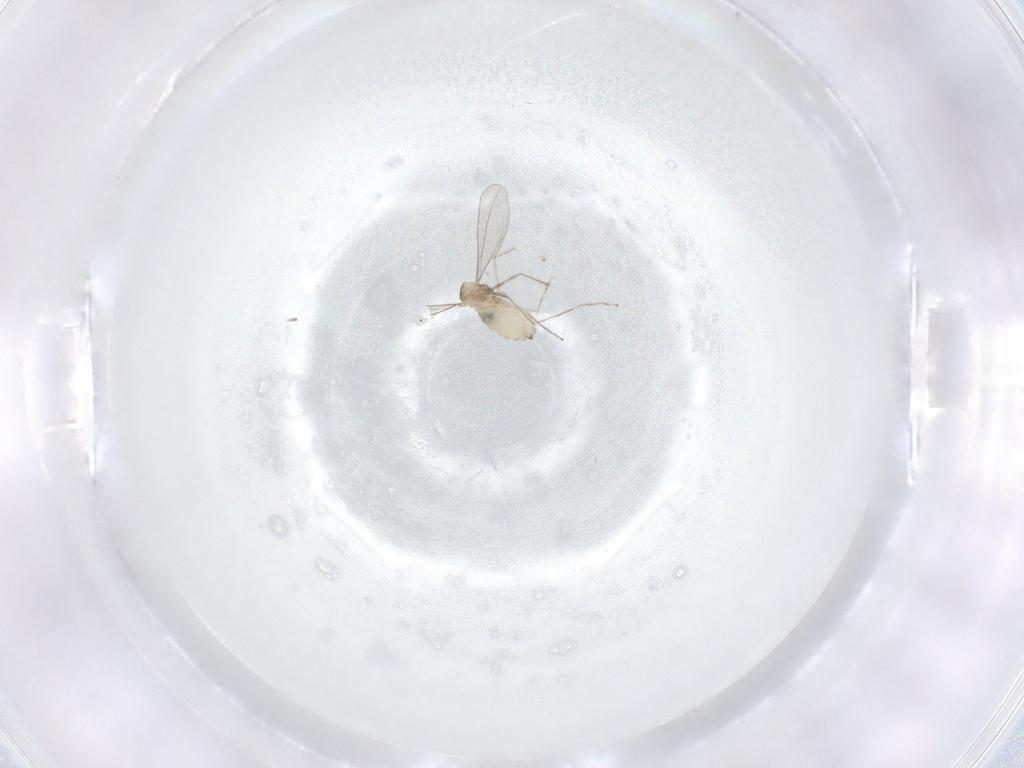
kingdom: Animalia
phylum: Arthropoda
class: Insecta
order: Diptera
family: Cecidomyiidae
